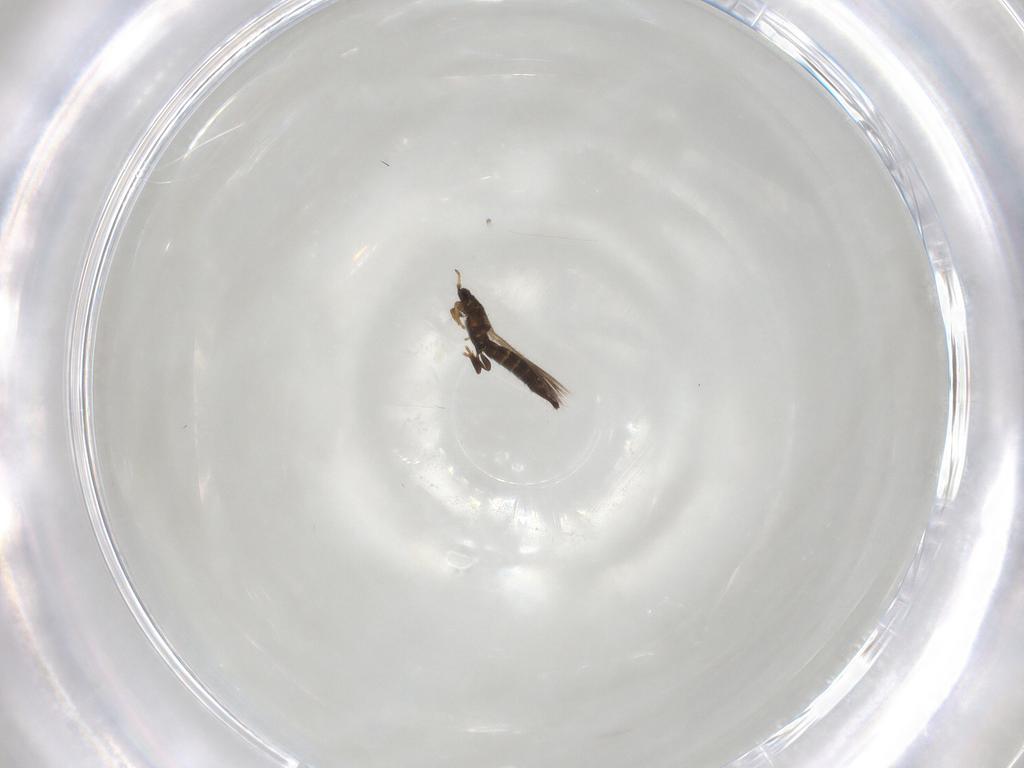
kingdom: Animalia
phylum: Arthropoda
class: Insecta
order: Thysanoptera
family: Thripidae
